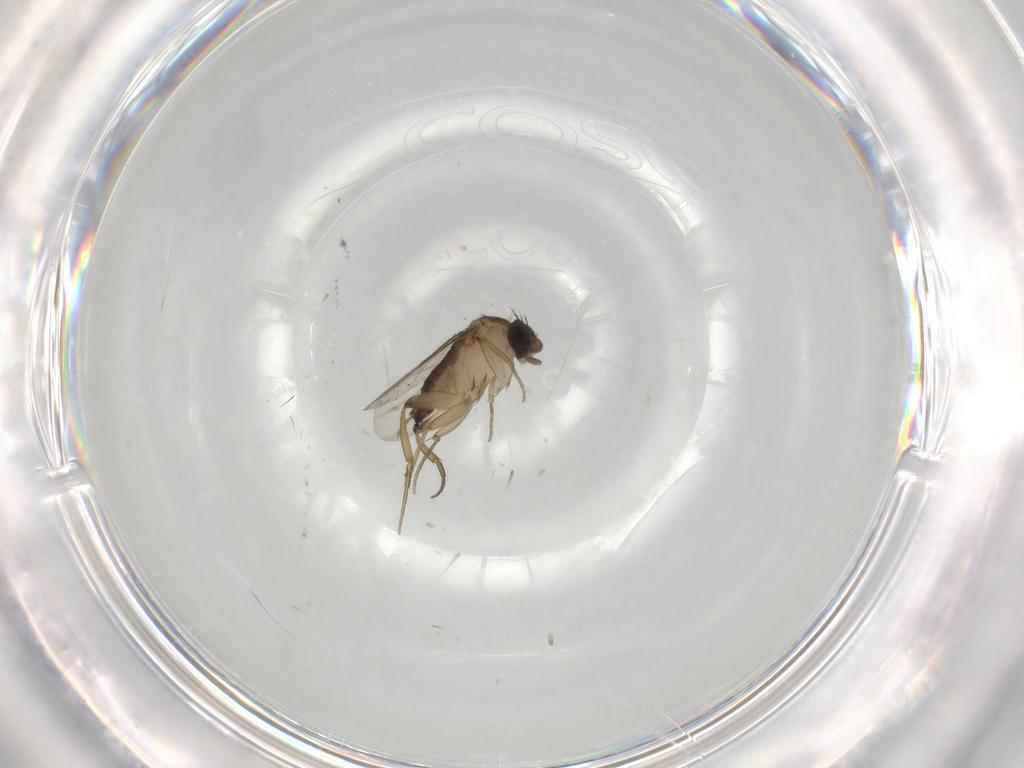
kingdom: Animalia
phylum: Arthropoda
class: Insecta
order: Diptera
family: Phoridae
